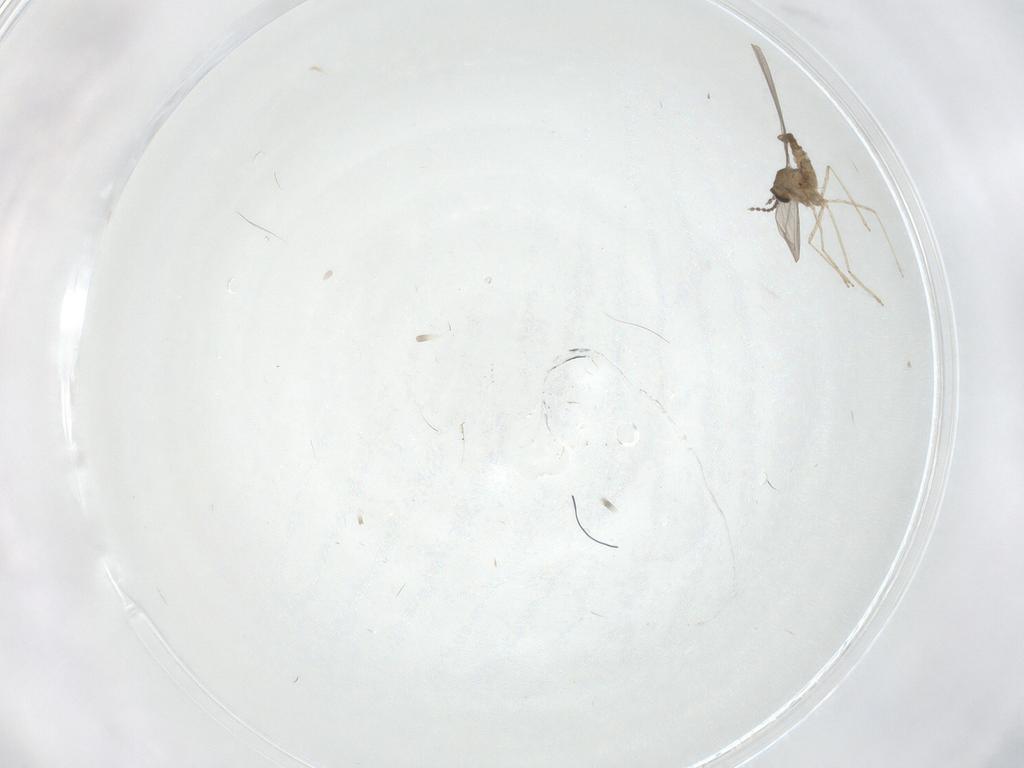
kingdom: Animalia
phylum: Arthropoda
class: Insecta
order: Diptera
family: Cecidomyiidae
